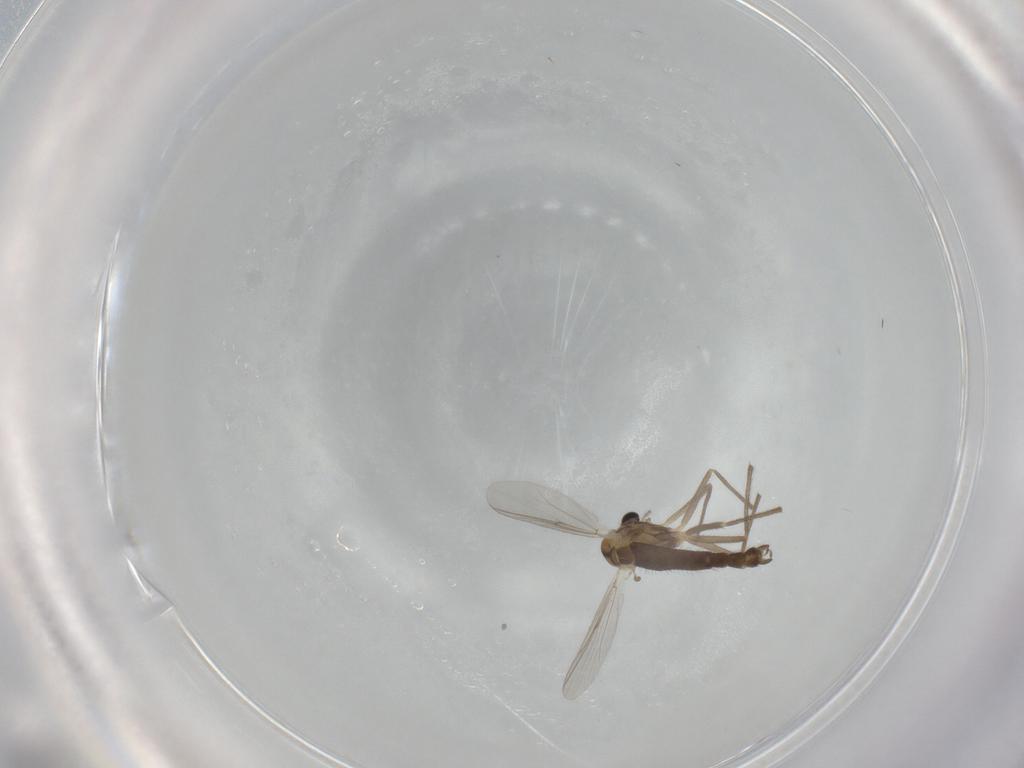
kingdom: Animalia
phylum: Arthropoda
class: Insecta
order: Diptera
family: Chironomidae
